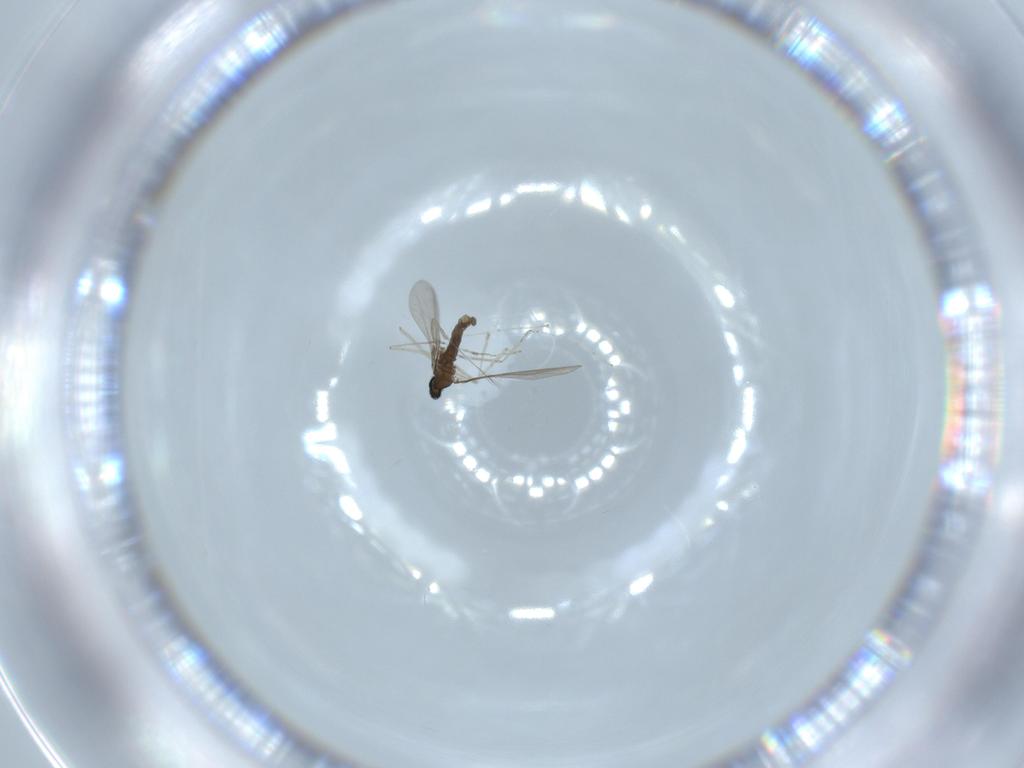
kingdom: Animalia
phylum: Arthropoda
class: Insecta
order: Diptera
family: Cecidomyiidae
